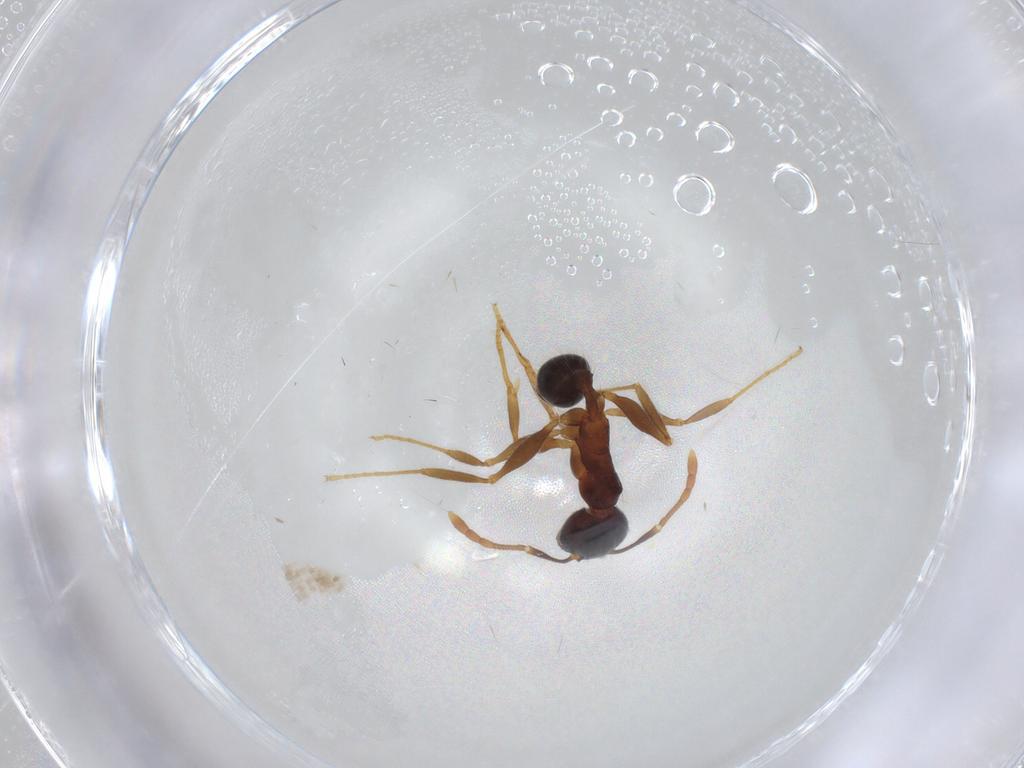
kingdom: Animalia
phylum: Arthropoda
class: Insecta
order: Hymenoptera
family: Formicidae
